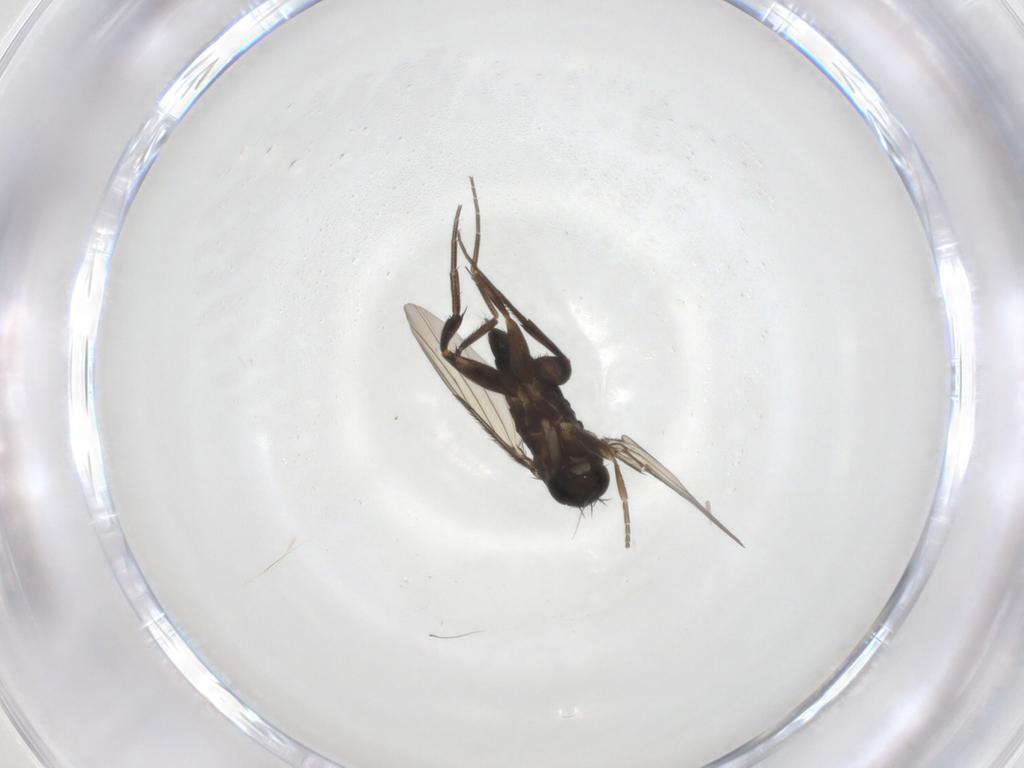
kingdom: Animalia
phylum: Arthropoda
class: Insecta
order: Diptera
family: Phoridae
